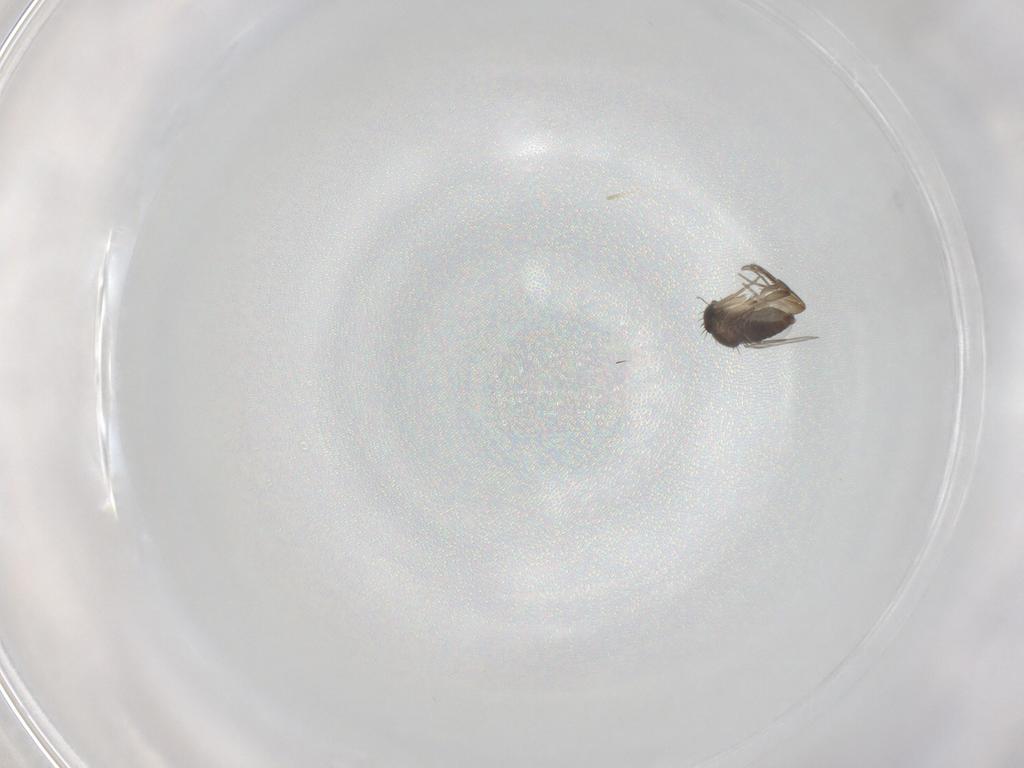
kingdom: Animalia
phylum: Arthropoda
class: Insecta
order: Diptera
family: Phoridae
